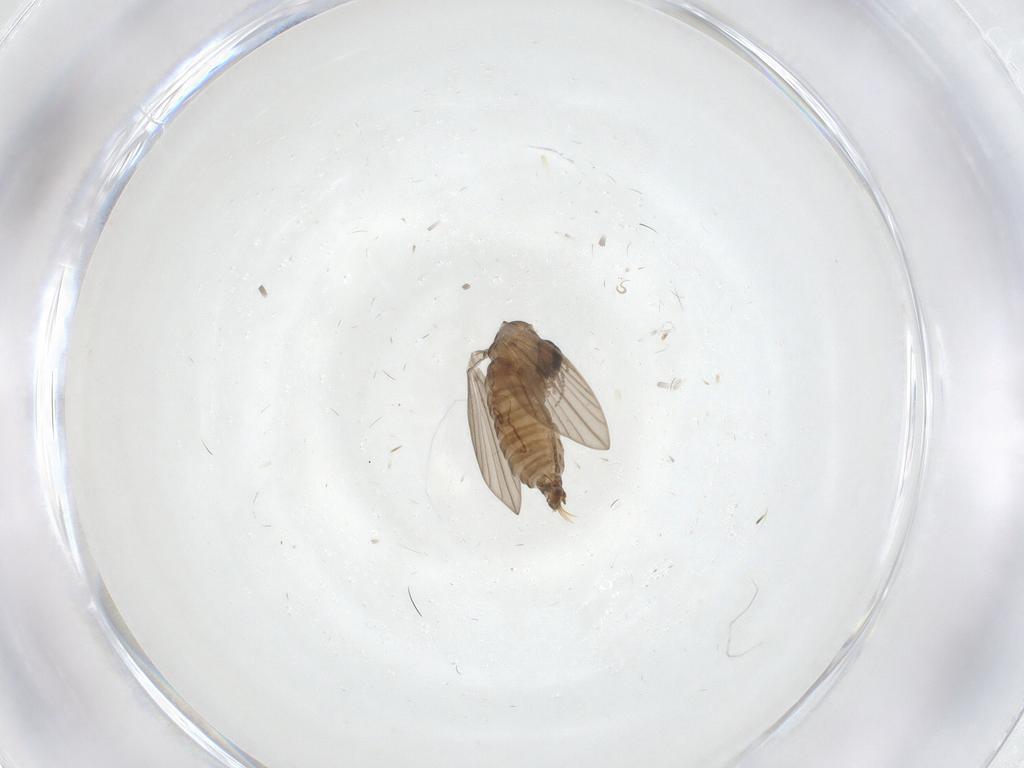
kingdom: Animalia
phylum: Arthropoda
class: Insecta
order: Diptera
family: Psychodidae
